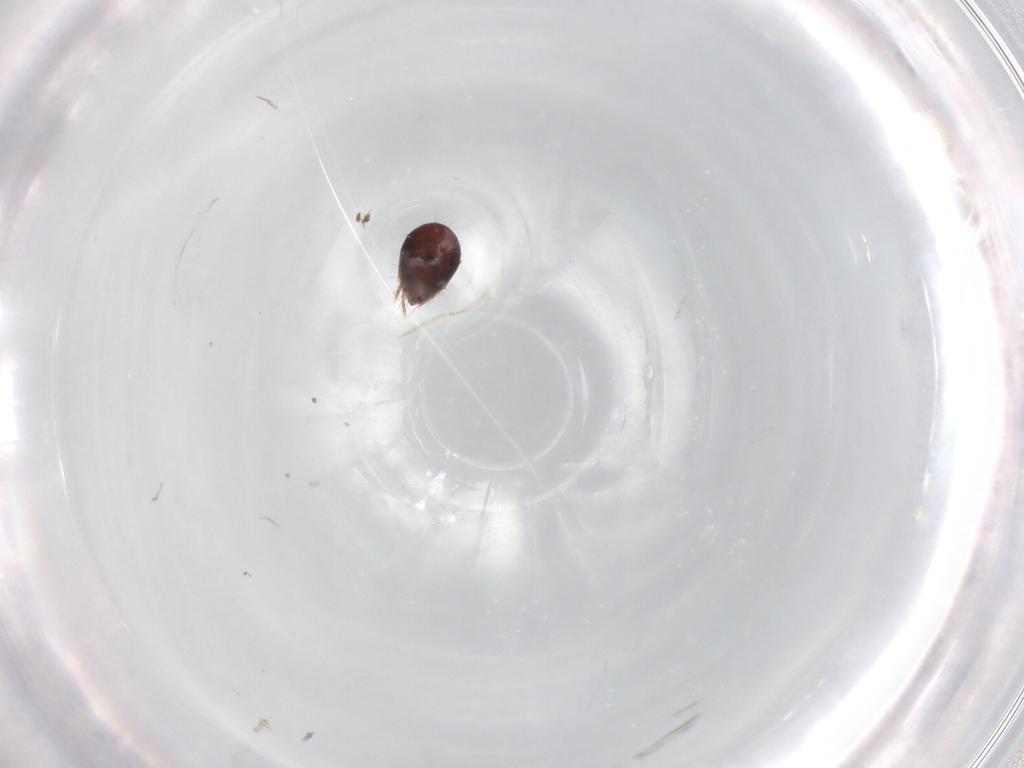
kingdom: Animalia
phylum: Arthropoda
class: Arachnida
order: Sarcoptiformes
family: Humerobatidae
